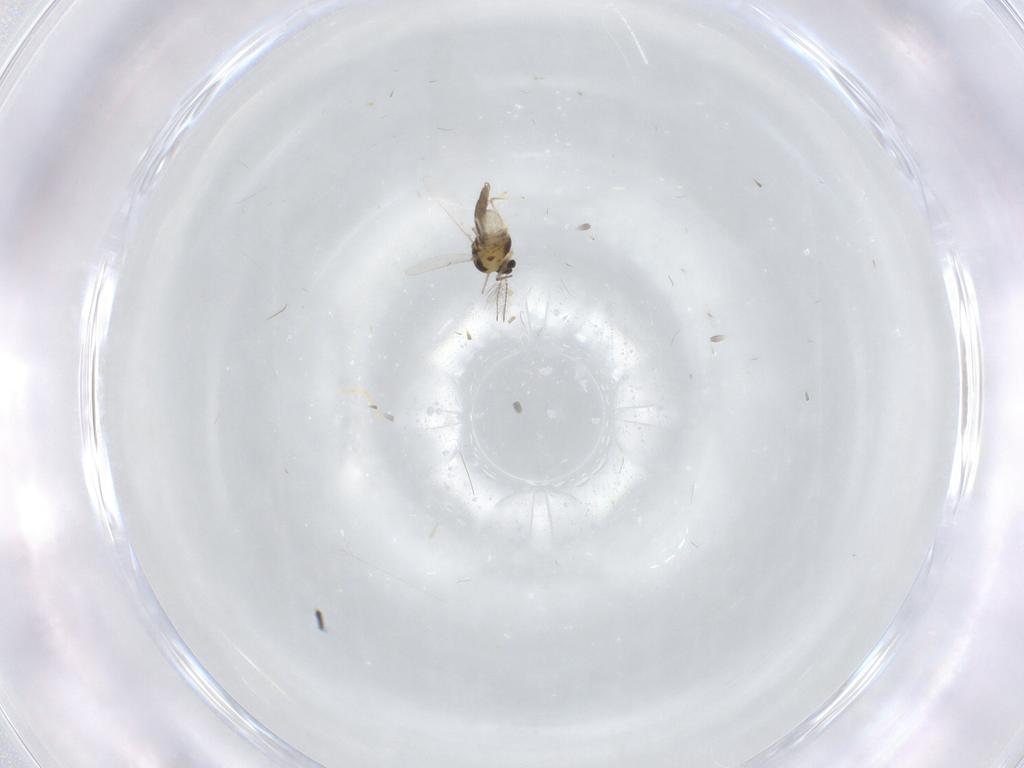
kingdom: Animalia
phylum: Arthropoda
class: Insecta
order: Diptera
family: Chironomidae
